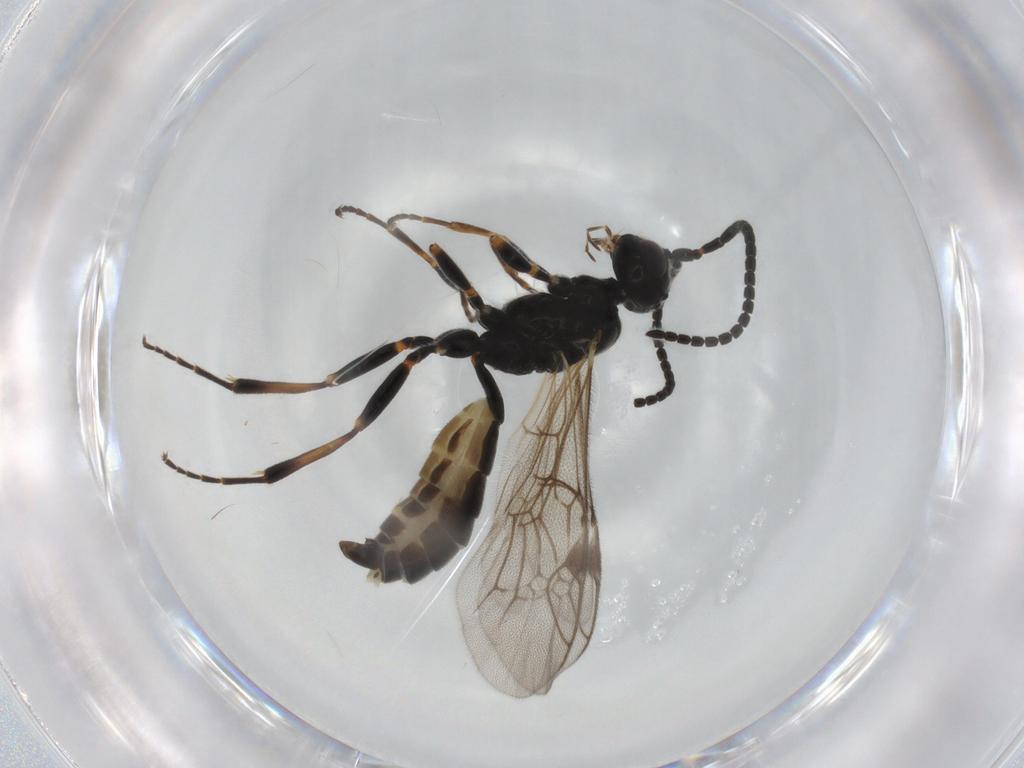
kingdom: Animalia
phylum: Arthropoda
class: Insecta
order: Hymenoptera
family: Ichneumonidae
